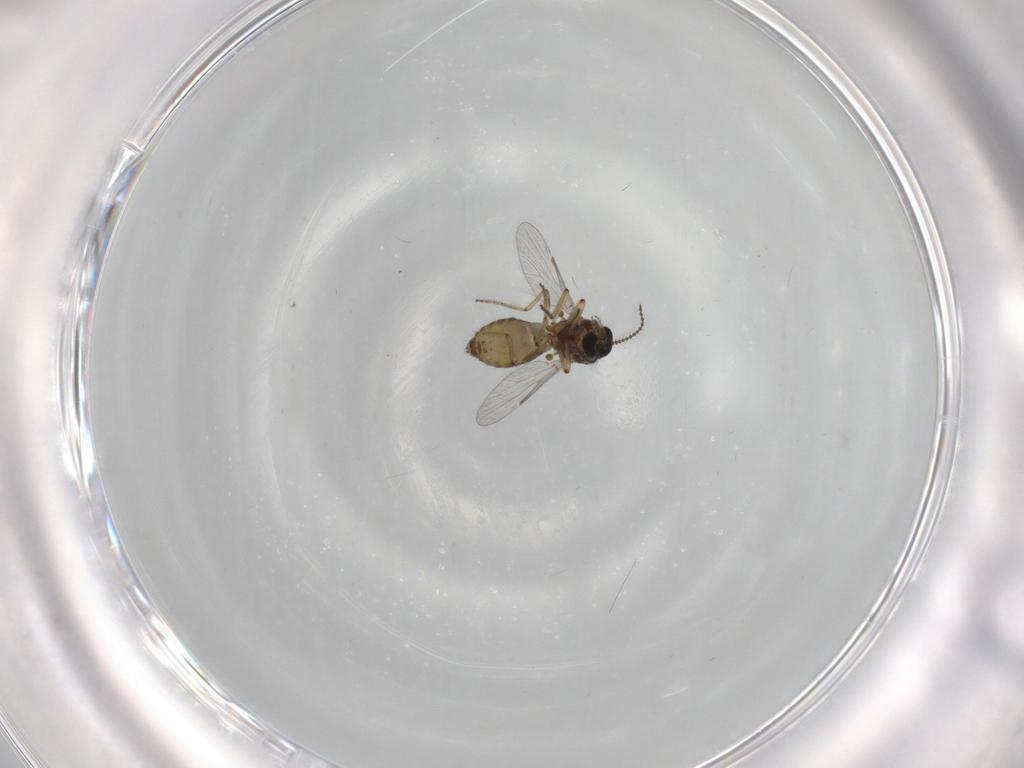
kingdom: Animalia
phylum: Arthropoda
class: Insecta
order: Diptera
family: Ceratopogonidae
